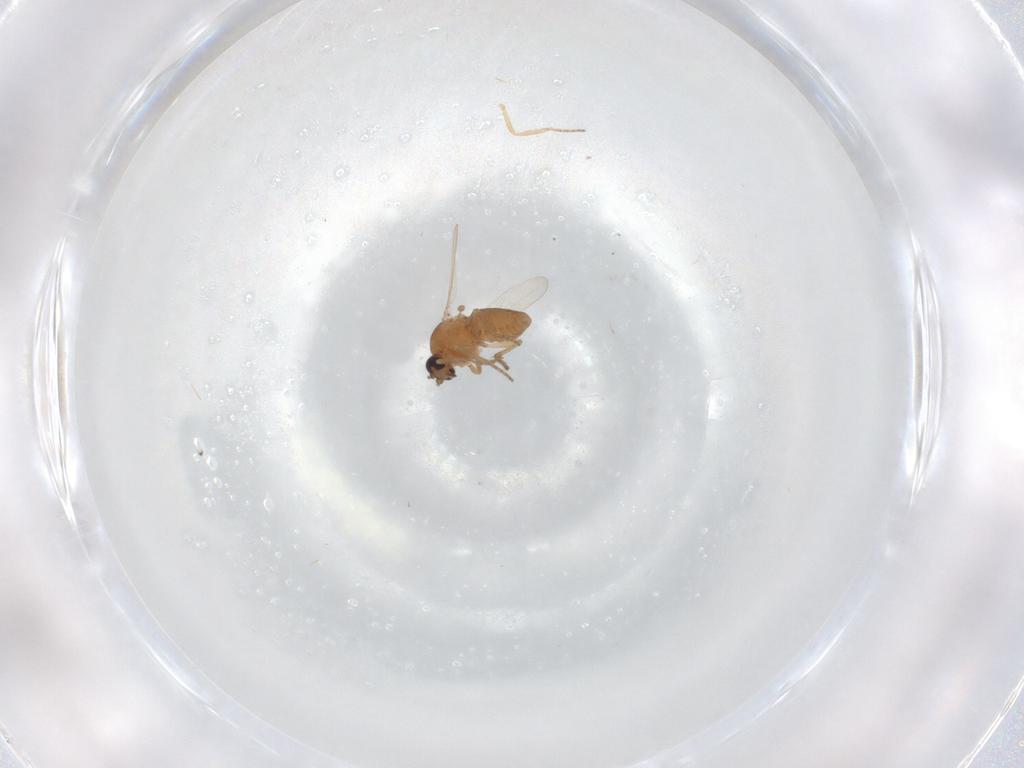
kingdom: Animalia
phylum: Arthropoda
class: Insecta
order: Diptera
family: Ceratopogonidae
